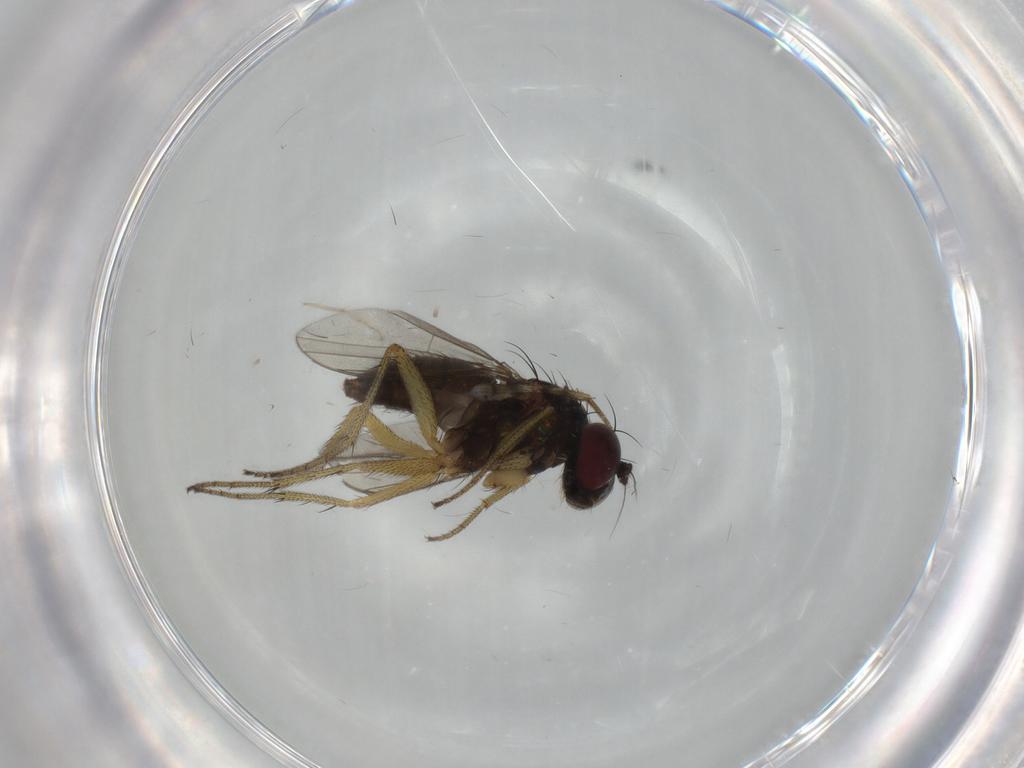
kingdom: Animalia
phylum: Arthropoda
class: Insecta
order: Diptera
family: Drosophilidae
